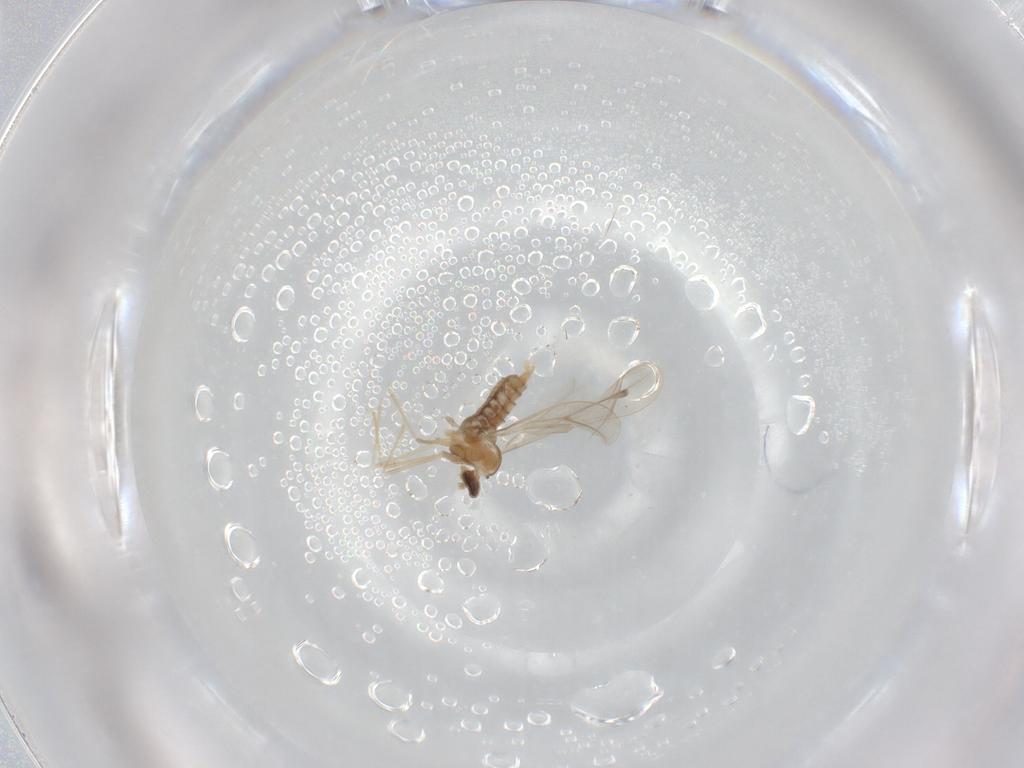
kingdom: Animalia
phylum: Arthropoda
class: Insecta
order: Diptera
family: Cecidomyiidae
